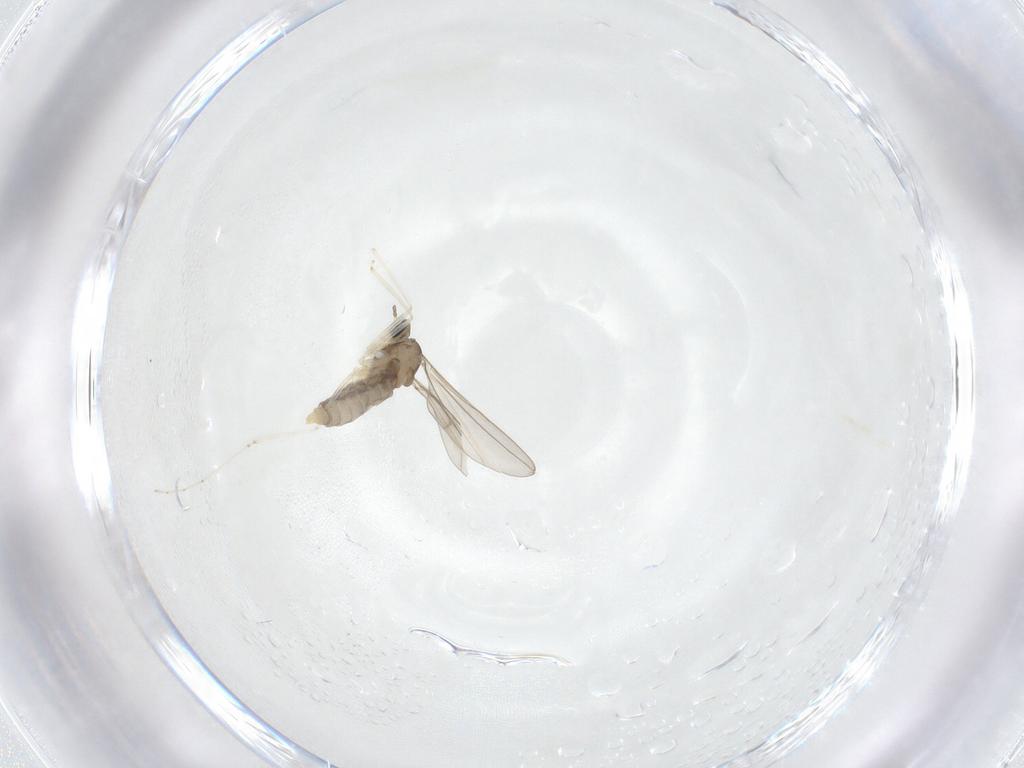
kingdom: Animalia
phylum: Arthropoda
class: Insecta
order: Diptera
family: Cecidomyiidae
